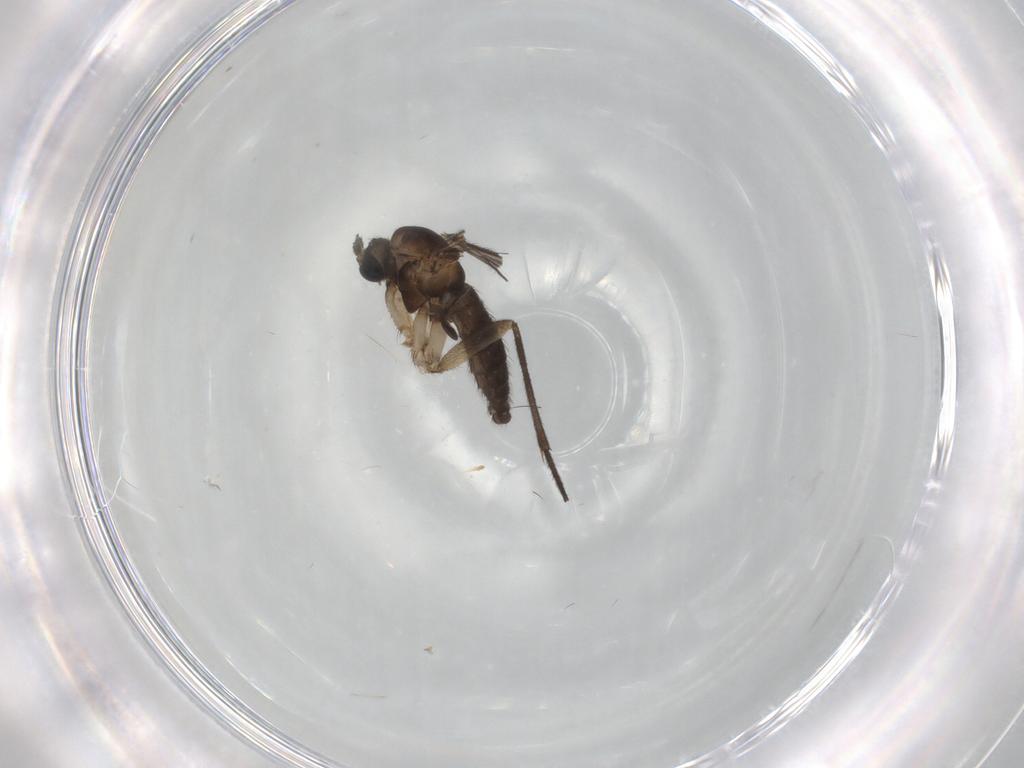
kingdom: Animalia
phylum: Arthropoda
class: Insecta
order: Diptera
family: Sciaridae
